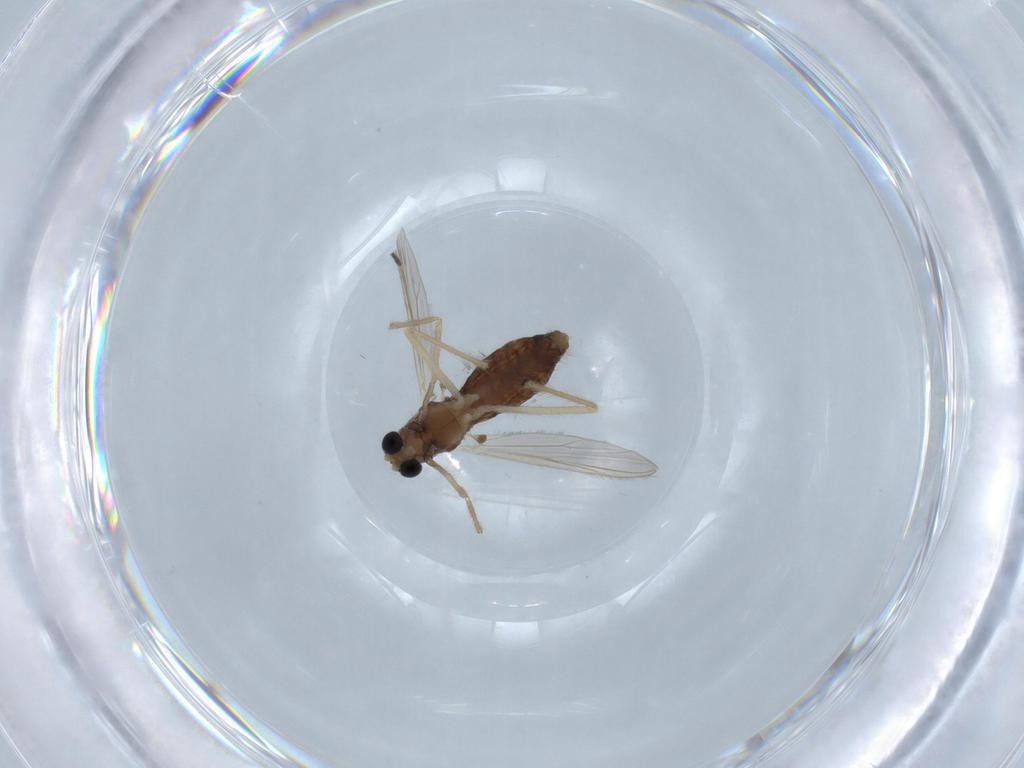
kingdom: Animalia
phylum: Arthropoda
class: Insecta
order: Diptera
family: Chironomidae
